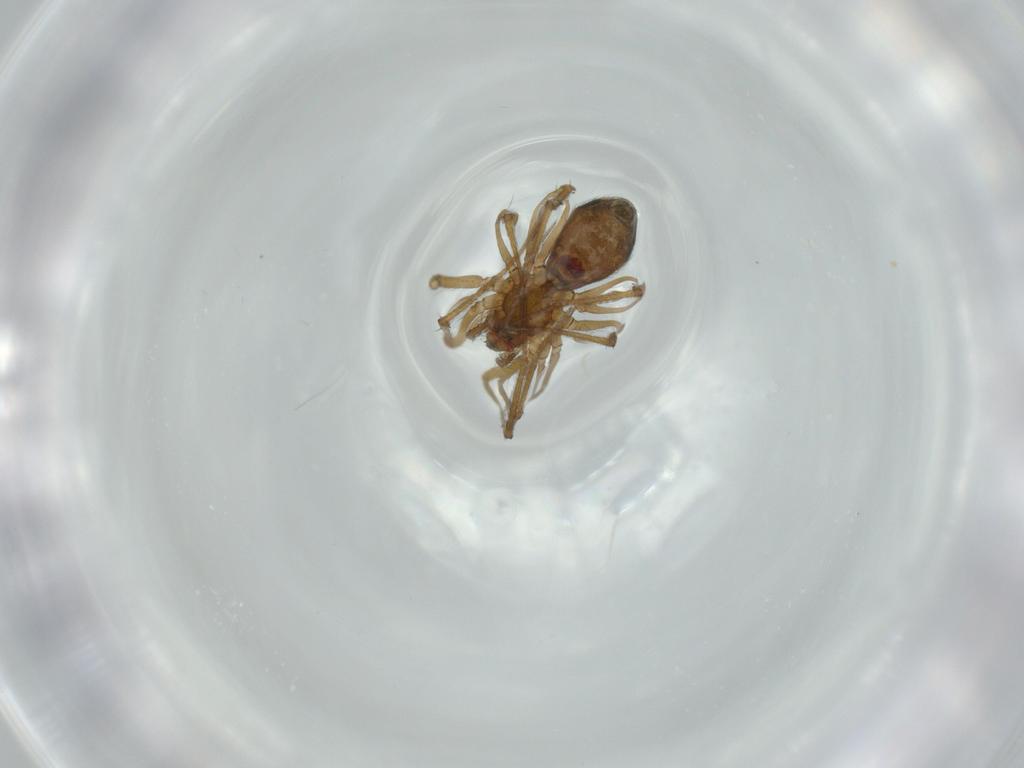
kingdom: Animalia
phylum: Arthropoda
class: Arachnida
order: Araneae
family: Linyphiidae
